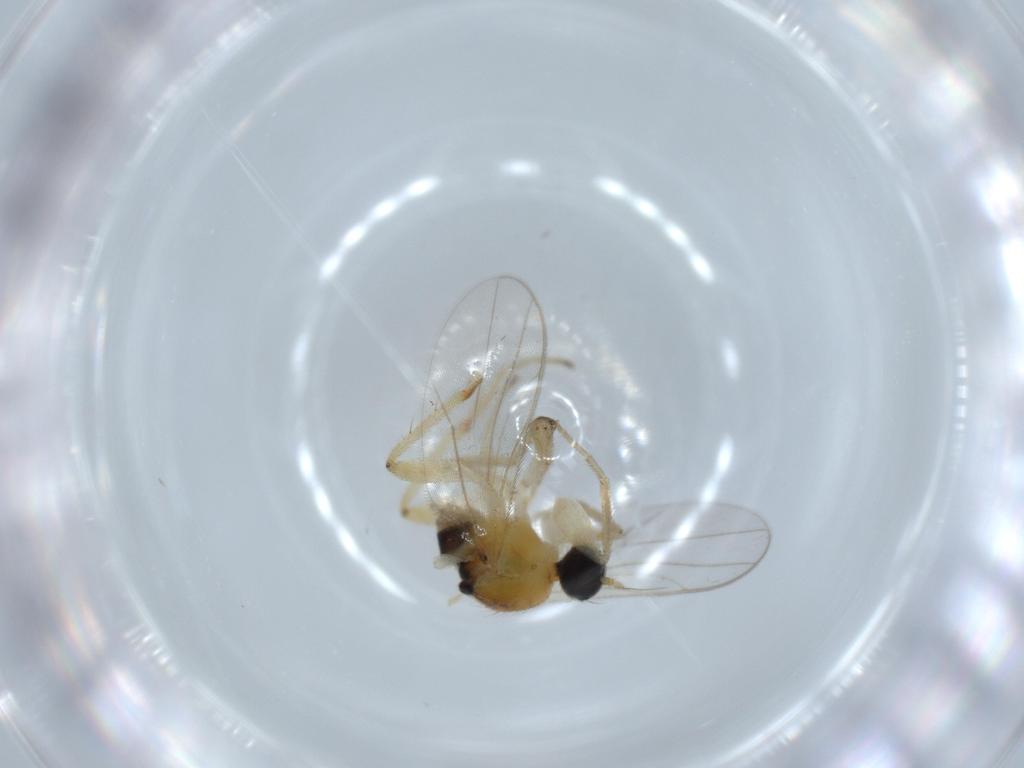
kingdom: Animalia
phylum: Arthropoda
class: Insecta
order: Diptera
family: Hybotidae
